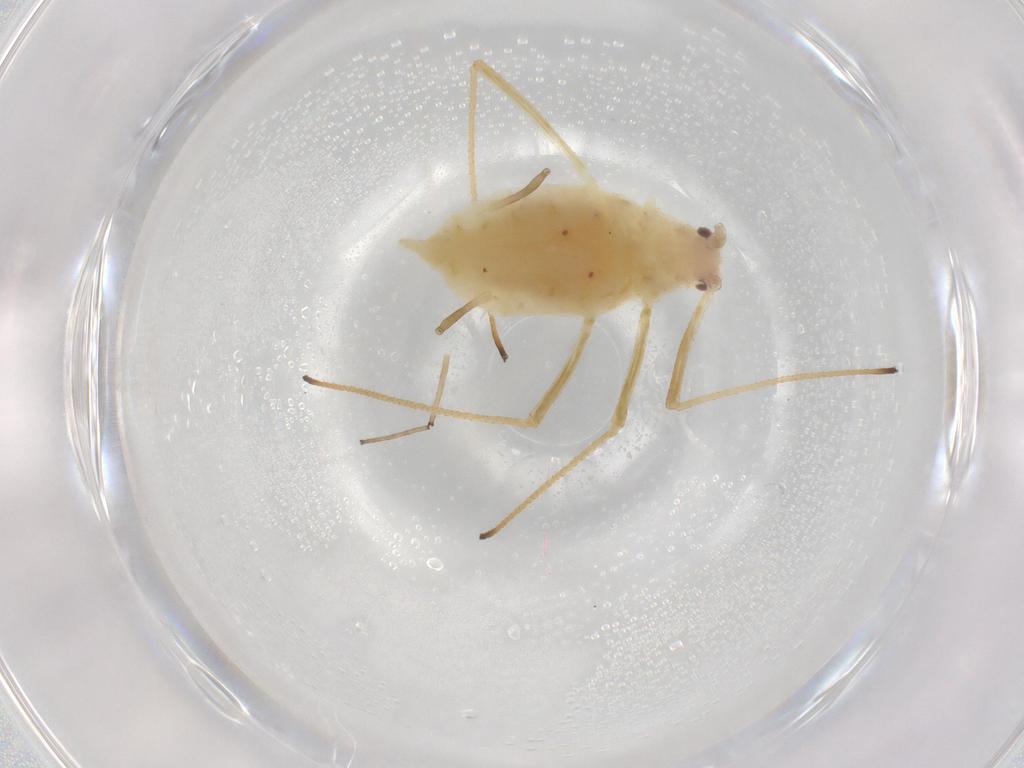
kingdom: Animalia
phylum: Arthropoda
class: Insecta
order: Hemiptera
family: Aphididae
